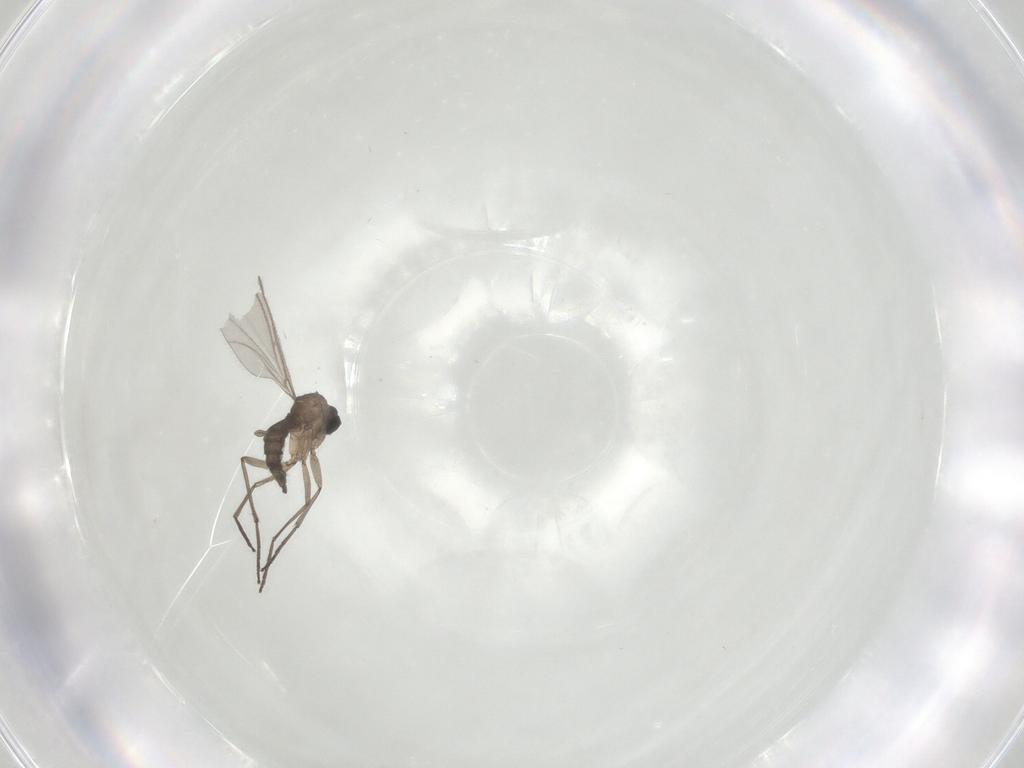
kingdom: Animalia
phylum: Arthropoda
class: Insecta
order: Diptera
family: Sciaridae
